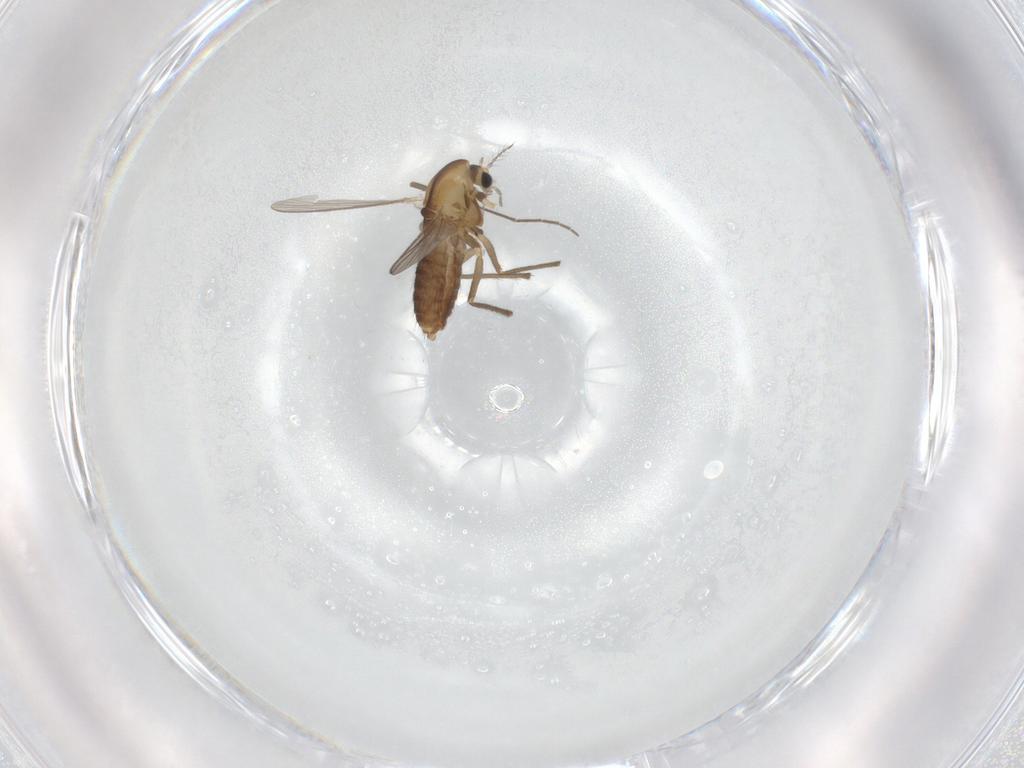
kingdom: Animalia
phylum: Arthropoda
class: Insecta
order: Diptera
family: Chironomidae
